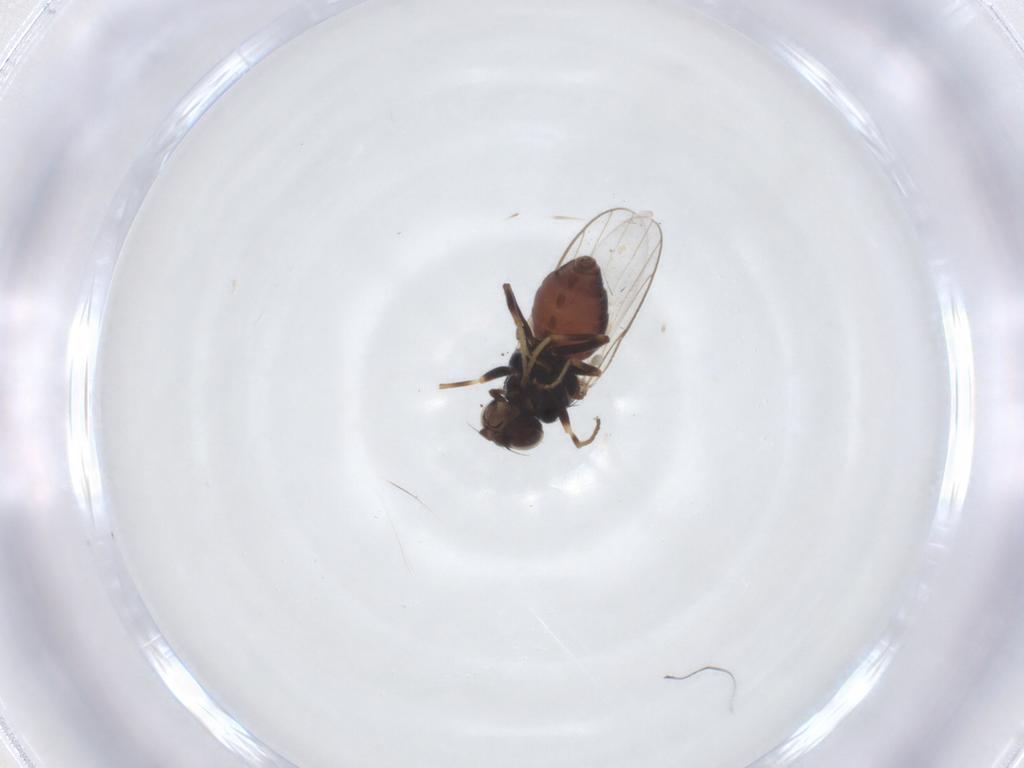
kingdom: Animalia
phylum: Arthropoda
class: Insecta
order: Diptera
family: Chloropidae
